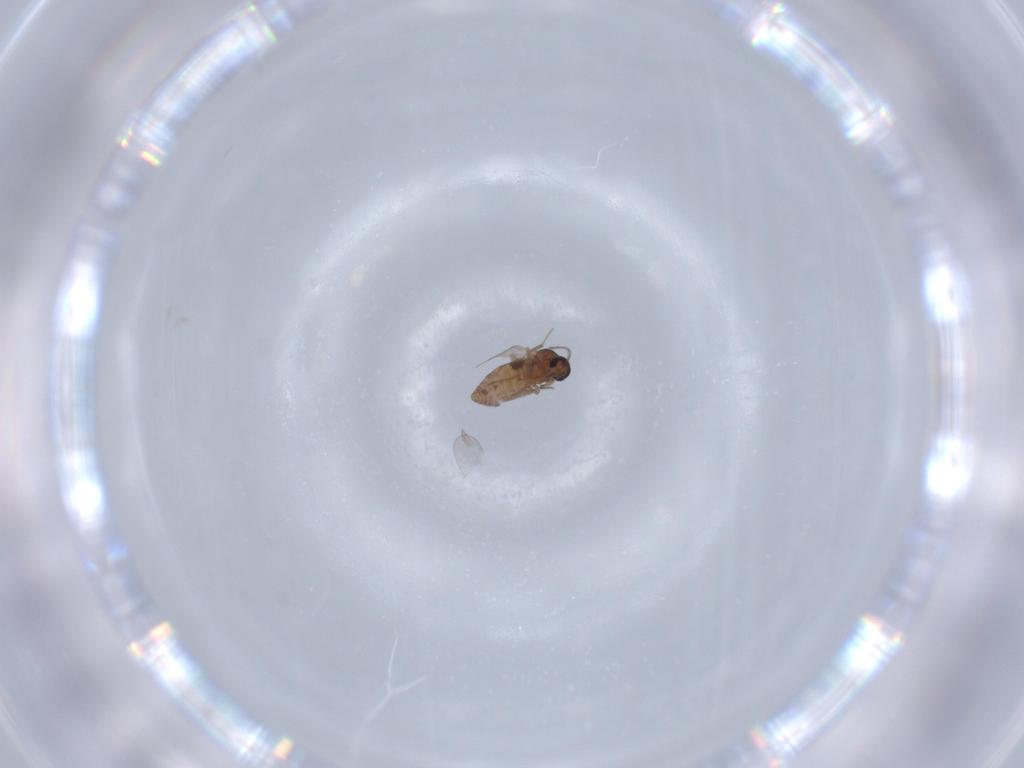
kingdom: Animalia
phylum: Arthropoda
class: Insecta
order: Diptera
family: Ceratopogonidae
